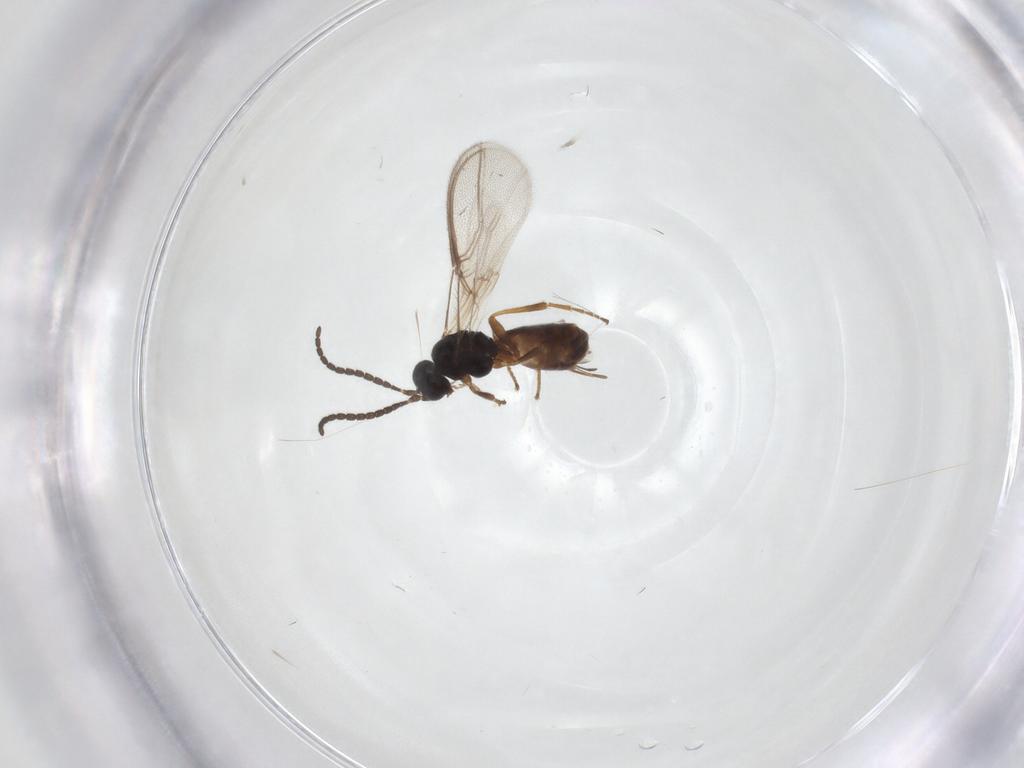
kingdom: Animalia
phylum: Arthropoda
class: Insecta
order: Hymenoptera
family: Braconidae
